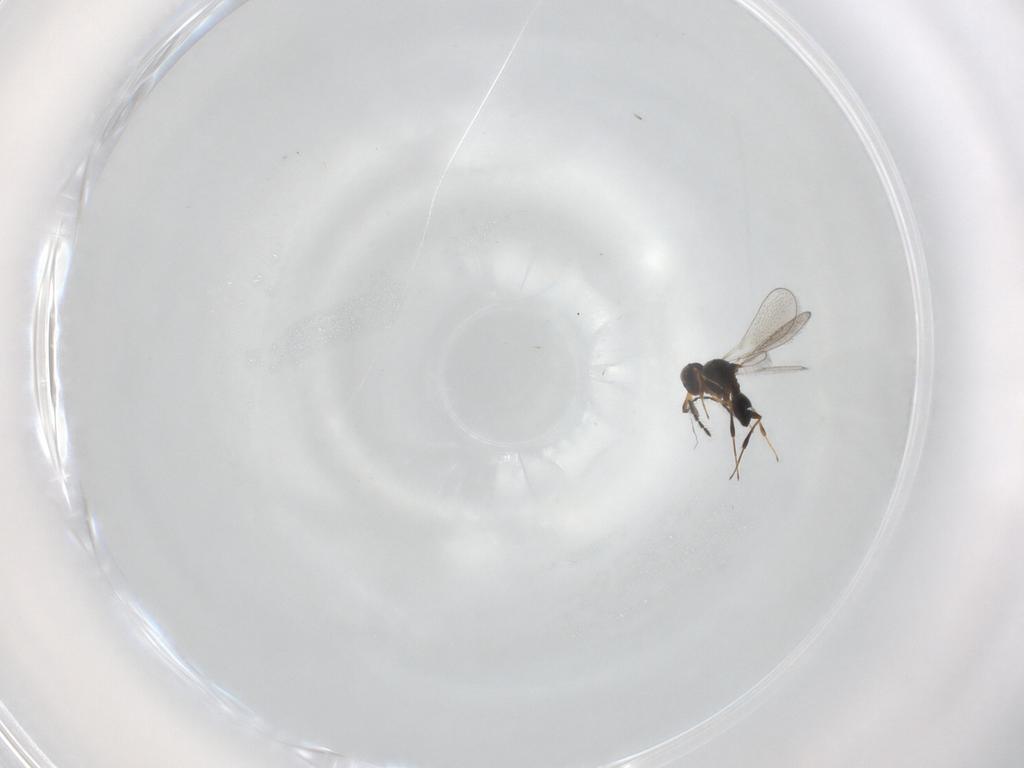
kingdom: Animalia
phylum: Arthropoda
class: Insecta
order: Hymenoptera
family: Platygastridae
